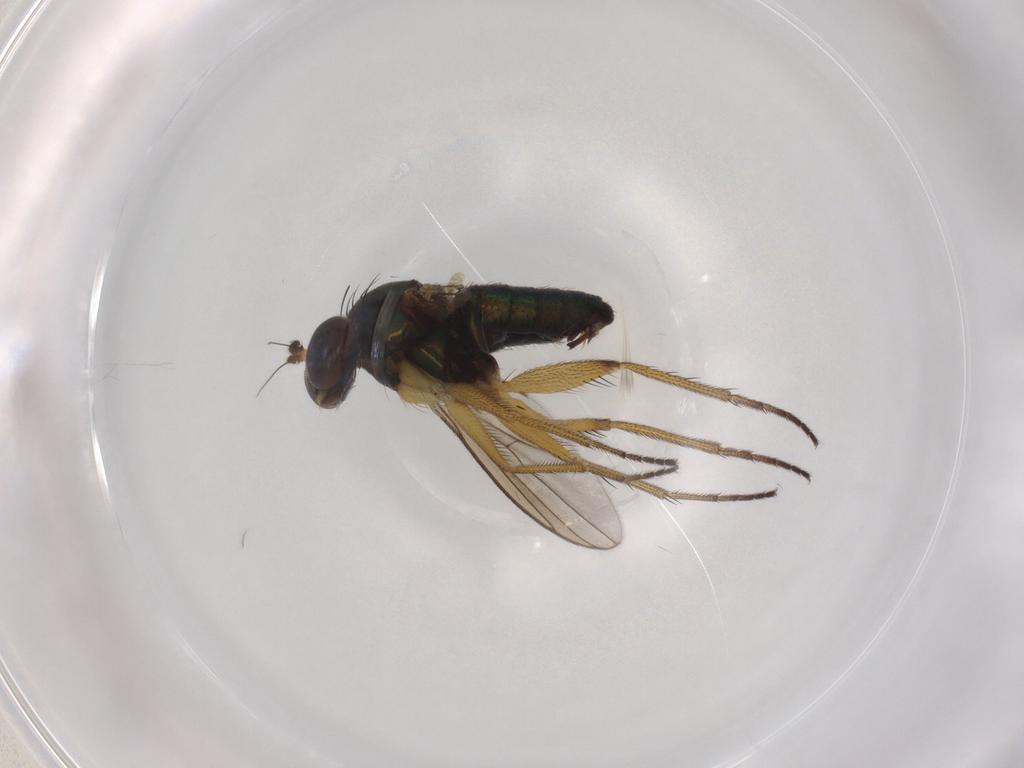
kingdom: Animalia
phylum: Arthropoda
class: Insecta
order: Diptera
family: Dolichopodidae
